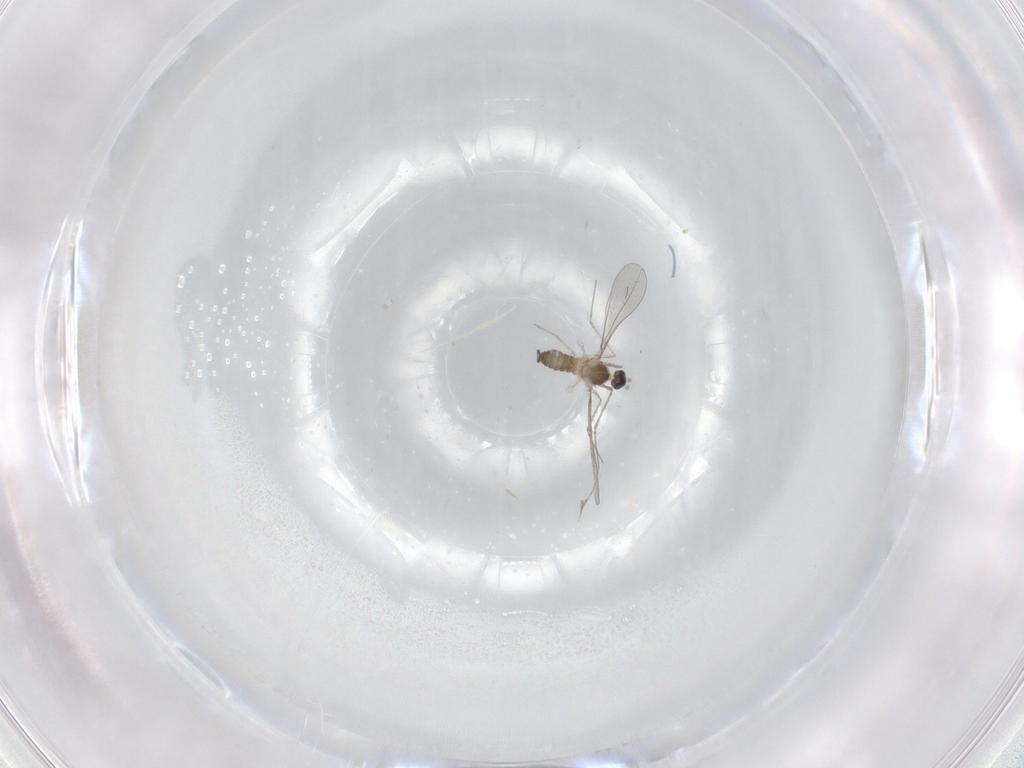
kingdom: Animalia
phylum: Arthropoda
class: Insecta
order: Diptera
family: Cecidomyiidae
